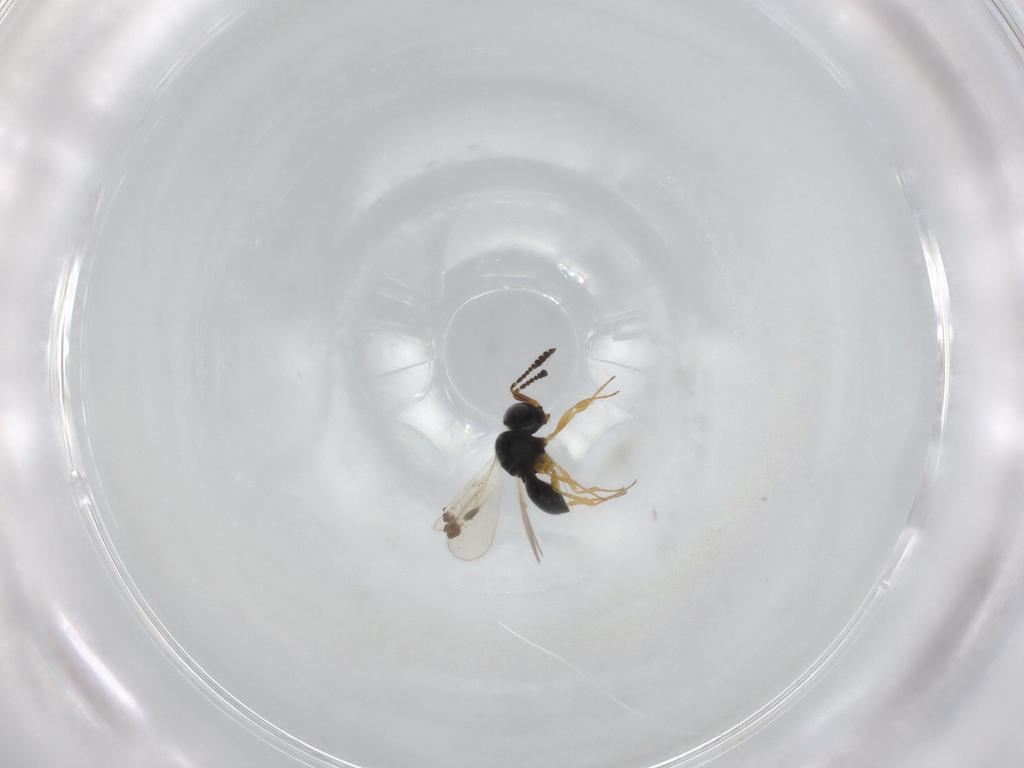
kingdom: Animalia
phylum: Arthropoda
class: Insecta
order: Hymenoptera
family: Scelionidae
